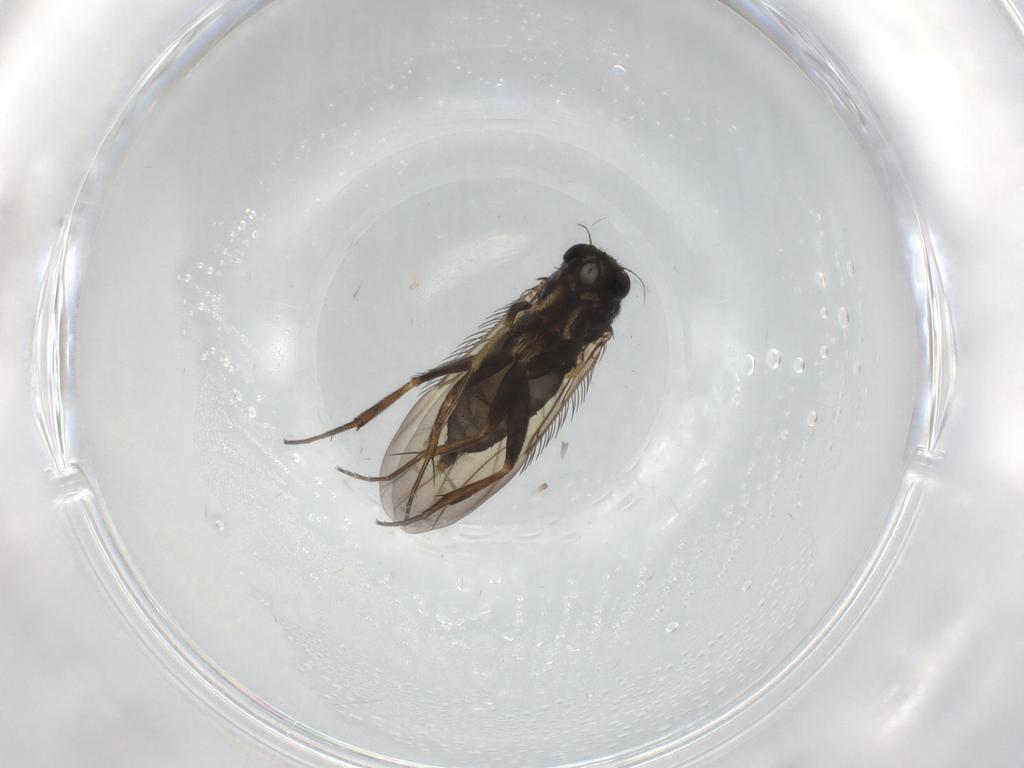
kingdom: Animalia
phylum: Arthropoda
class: Insecta
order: Diptera
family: Phoridae
